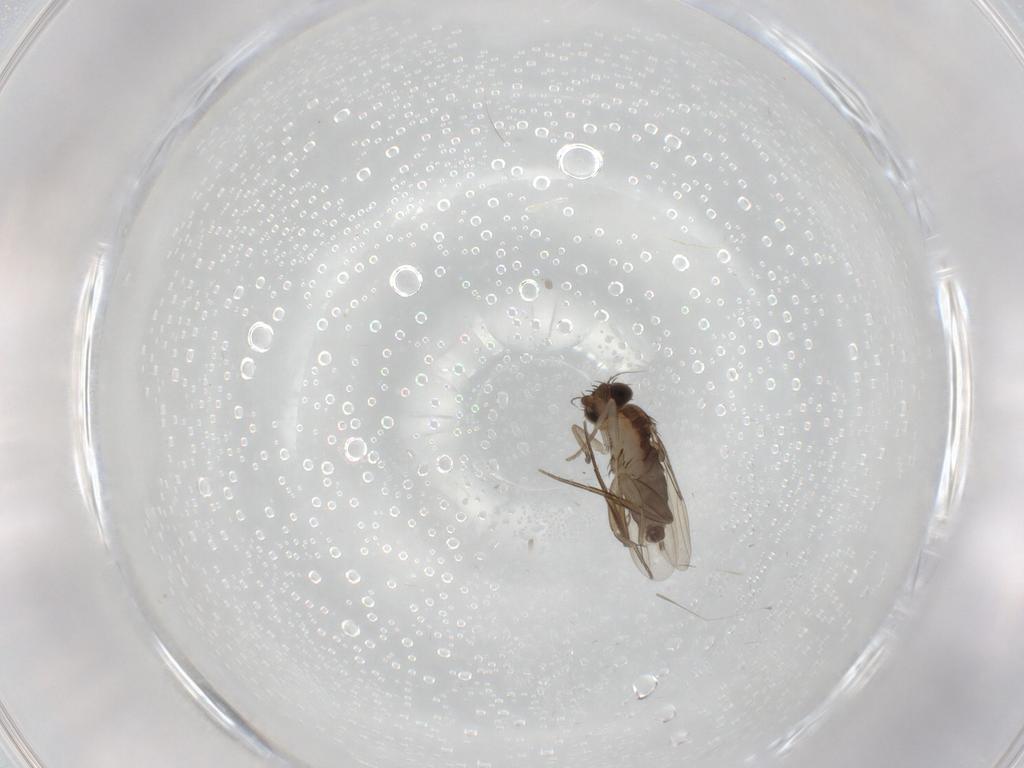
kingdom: Animalia
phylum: Arthropoda
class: Insecta
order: Diptera
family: Phoridae
